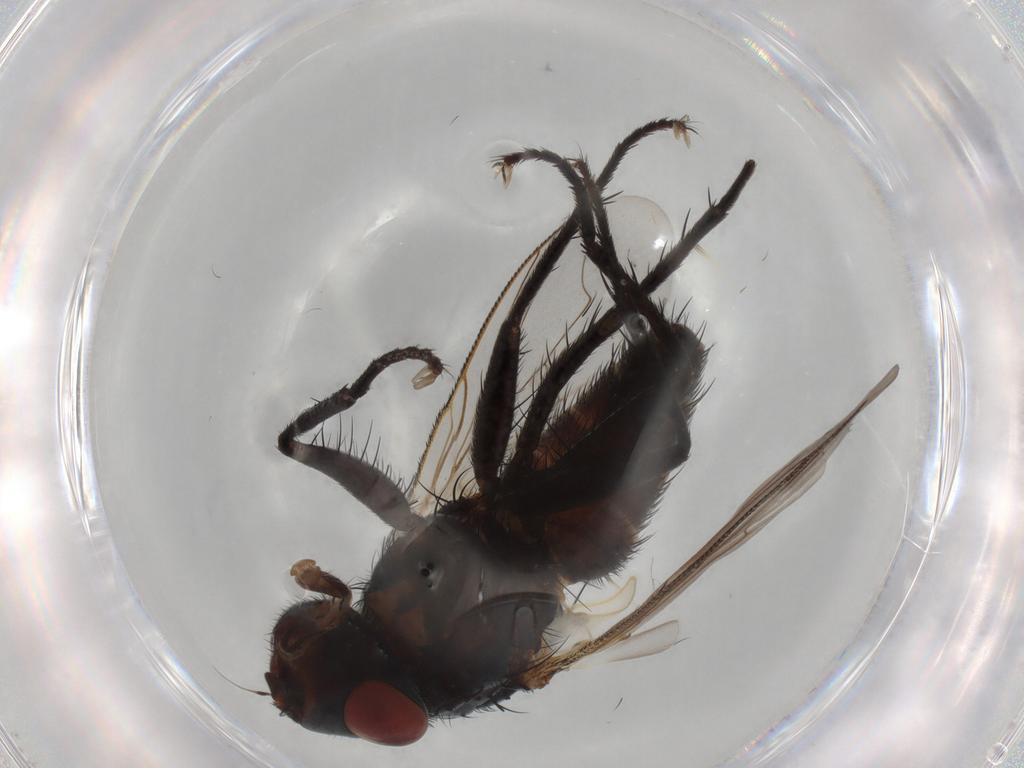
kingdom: Animalia
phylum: Arthropoda
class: Insecta
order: Diptera
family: Sarcophagidae
